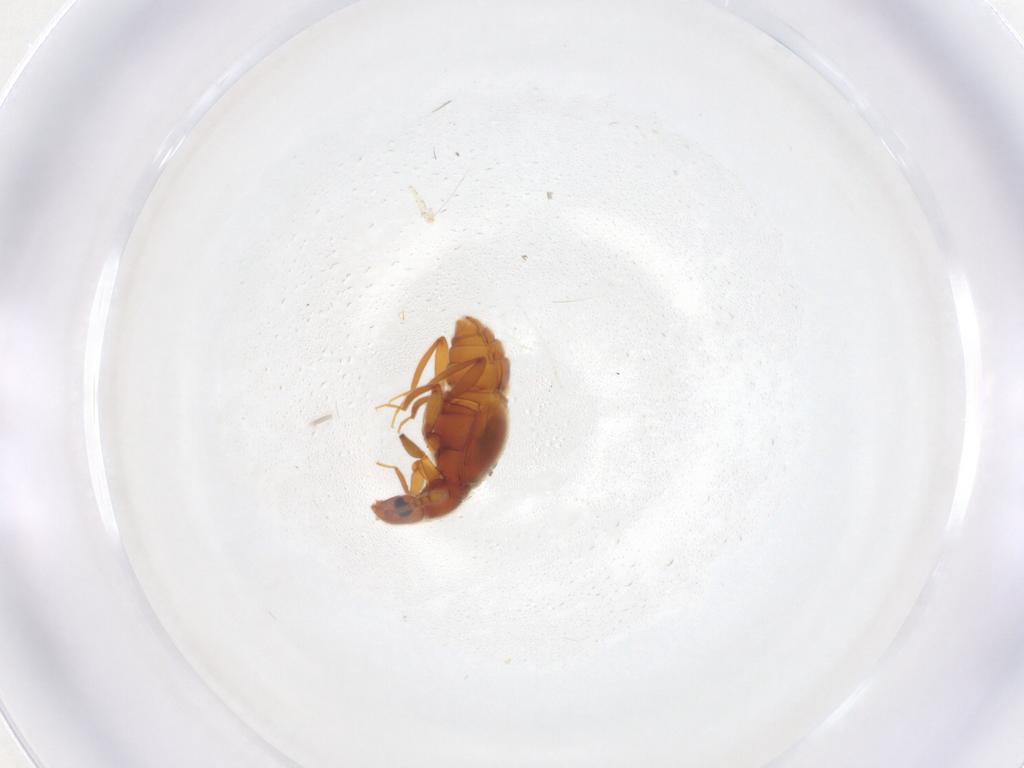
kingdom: Animalia
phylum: Arthropoda
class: Insecta
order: Coleoptera
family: Staphylinidae
